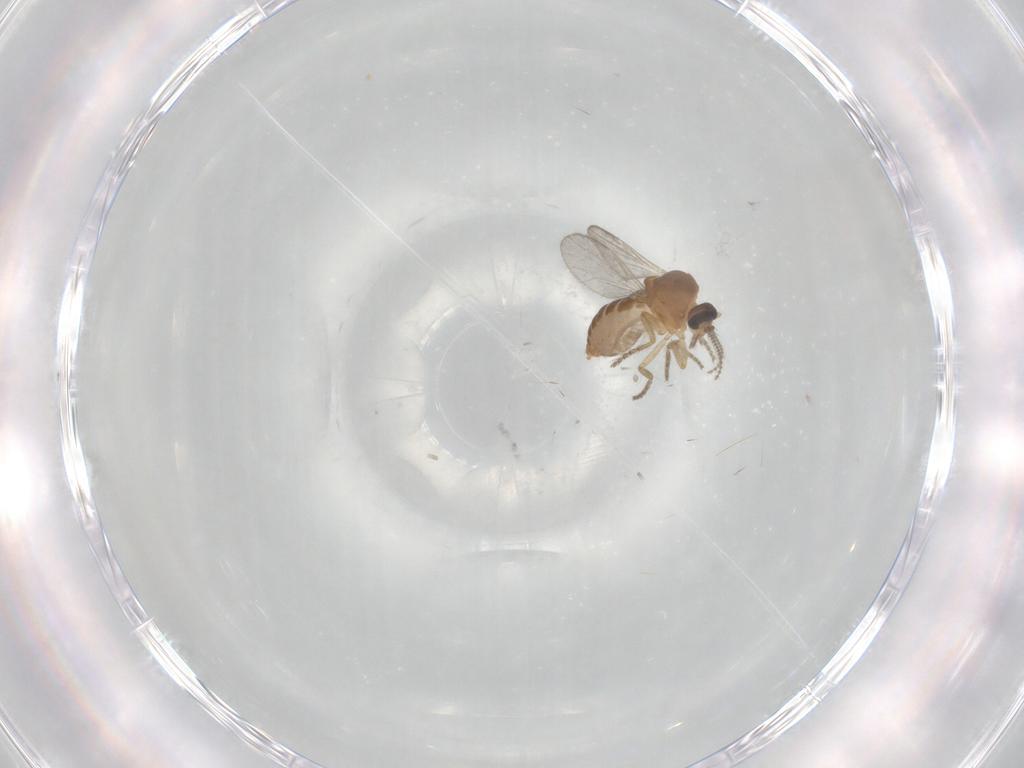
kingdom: Animalia
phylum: Arthropoda
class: Insecta
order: Diptera
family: Ceratopogonidae
